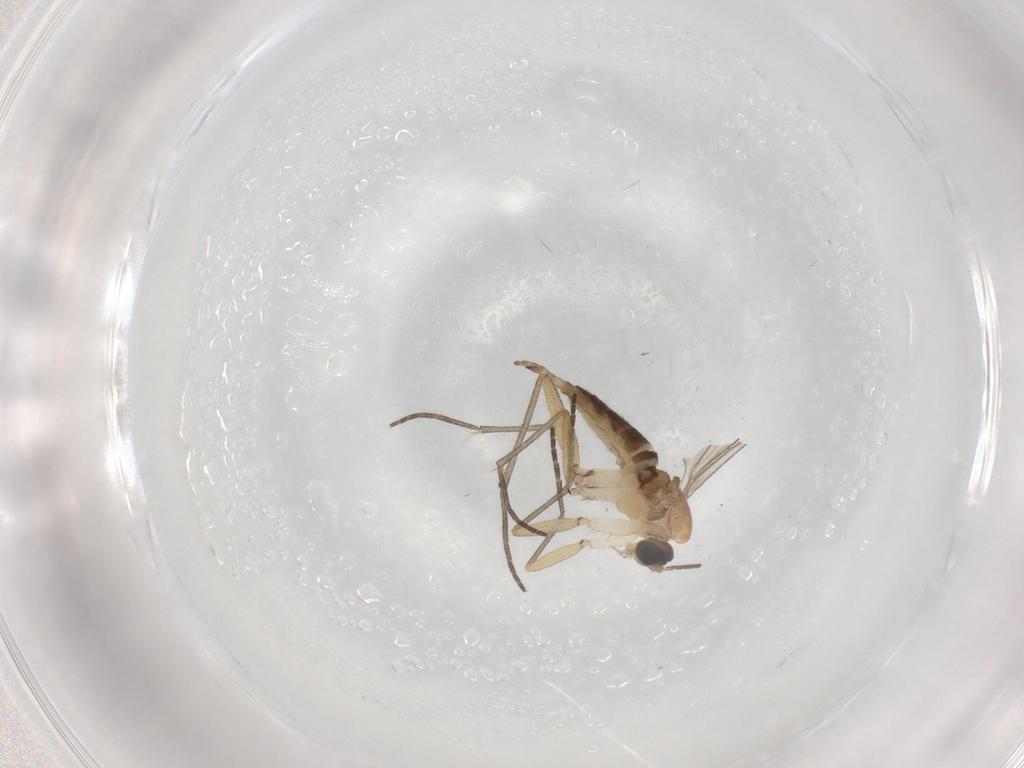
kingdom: Animalia
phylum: Arthropoda
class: Insecta
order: Diptera
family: Sciaridae
